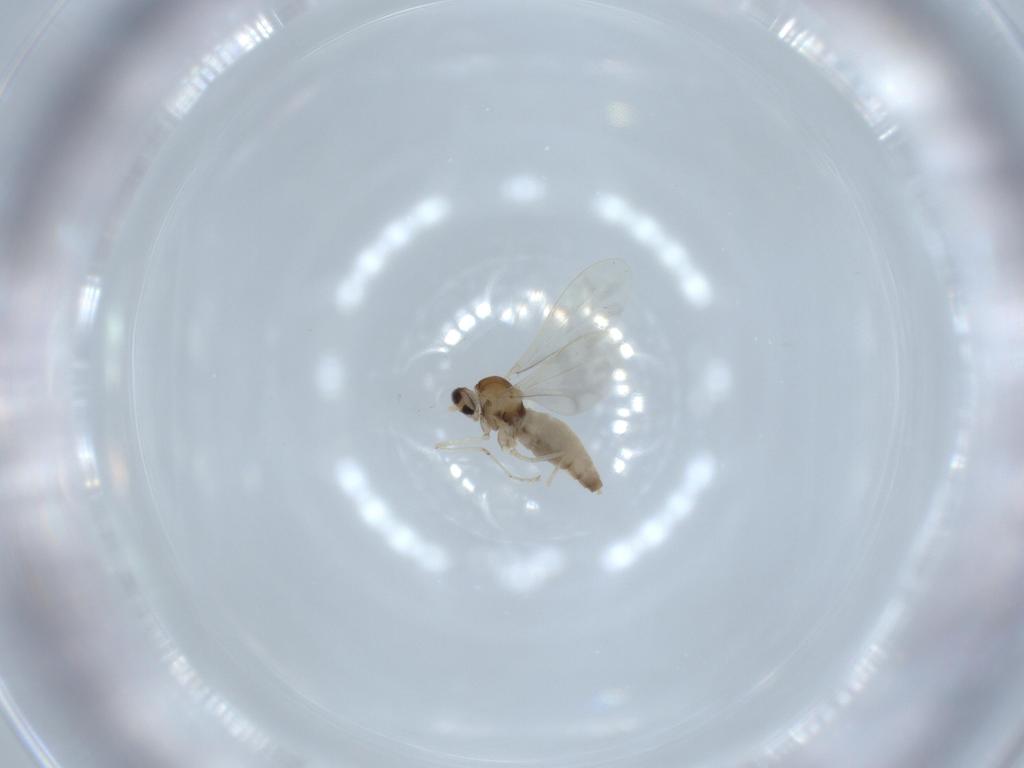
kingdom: Animalia
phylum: Arthropoda
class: Insecta
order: Diptera
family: Cecidomyiidae
